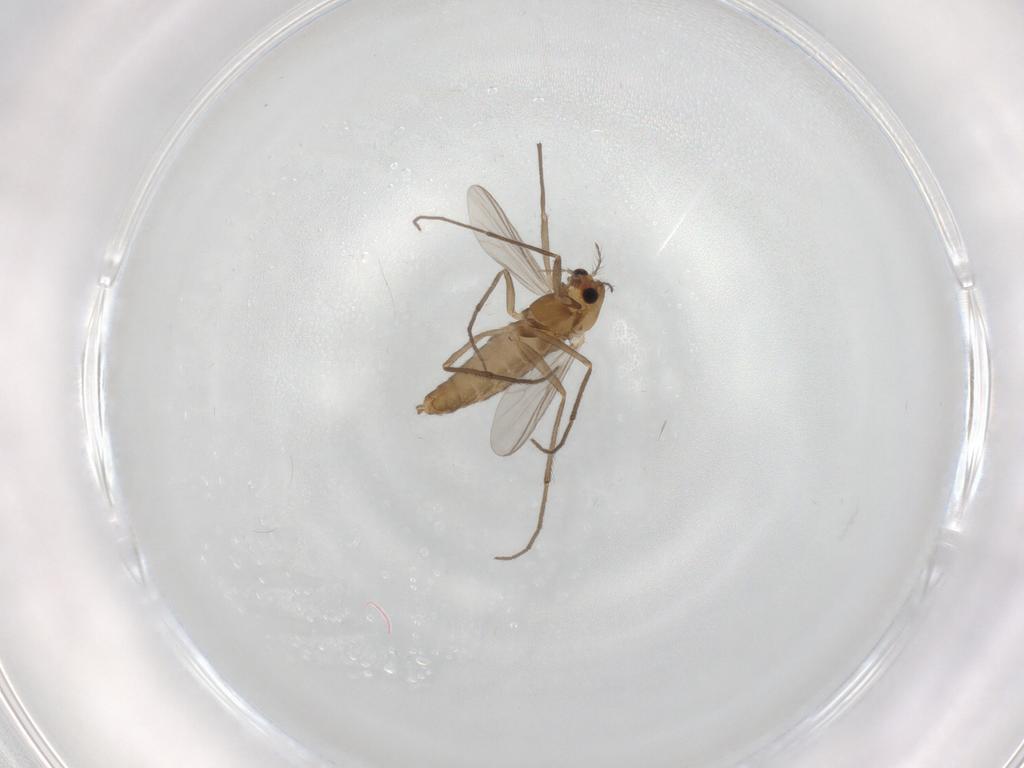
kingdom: Animalia
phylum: Arthropoda
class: Insecta
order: Diptera
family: Chironomidae
